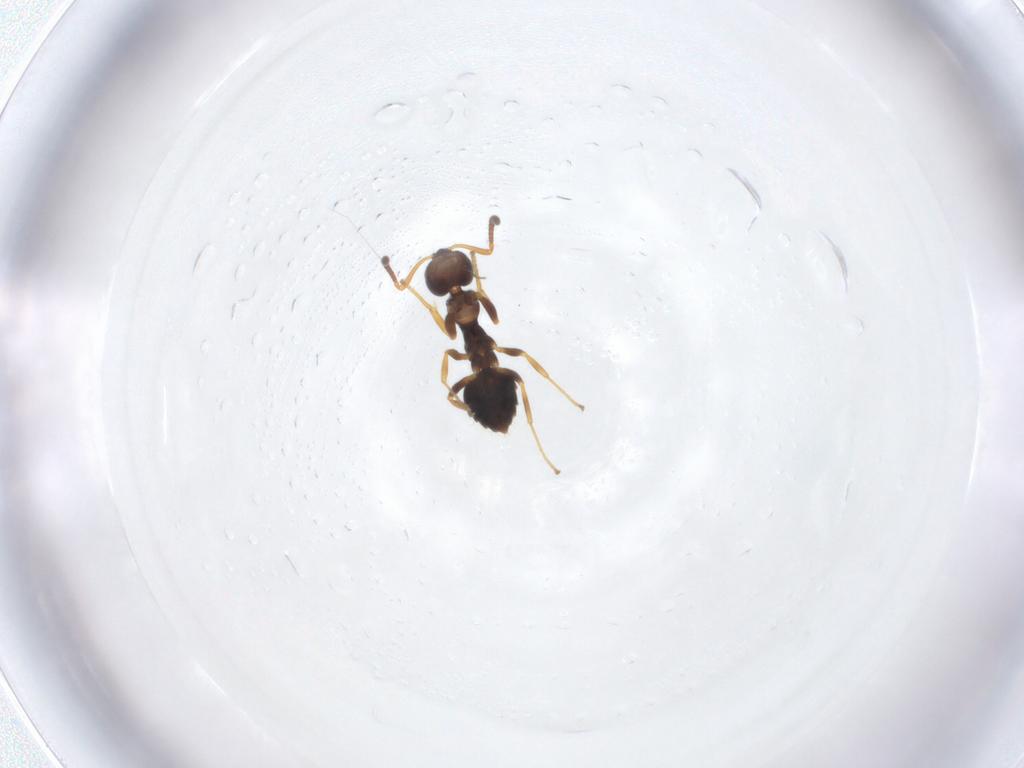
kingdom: Animalia
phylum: Arthropoda
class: Insecta
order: Hymenoptera
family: Formicidae
